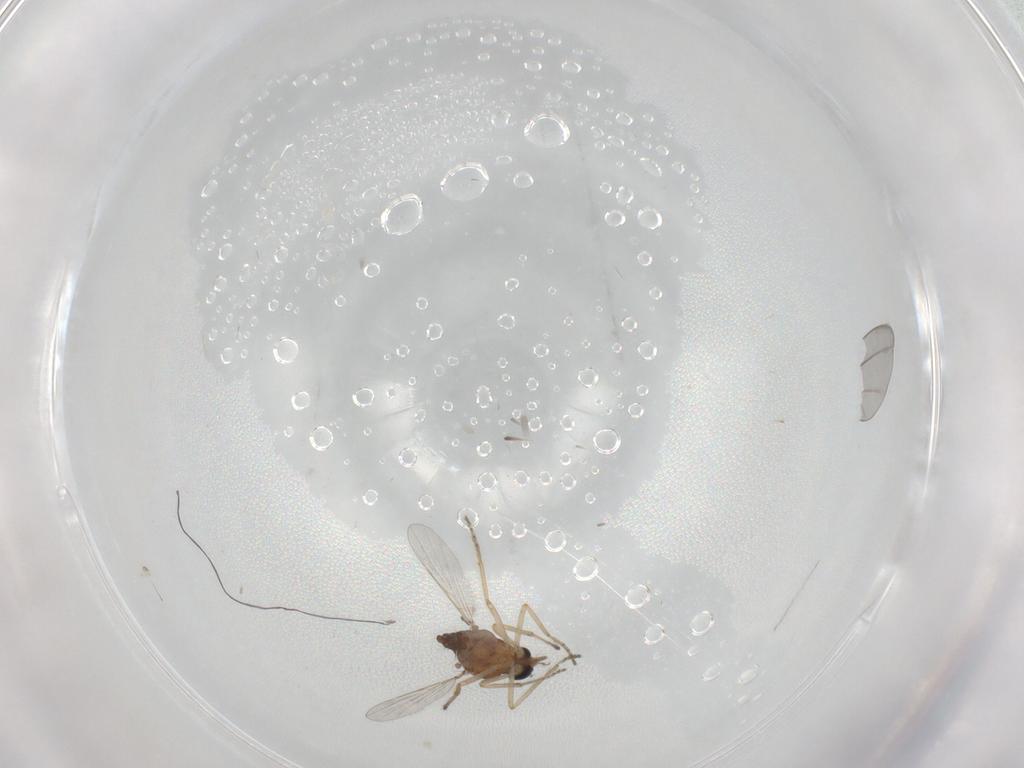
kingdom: Animalia
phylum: Arthropoda
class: Insecta
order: Diptera
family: Ceratopogonidae
